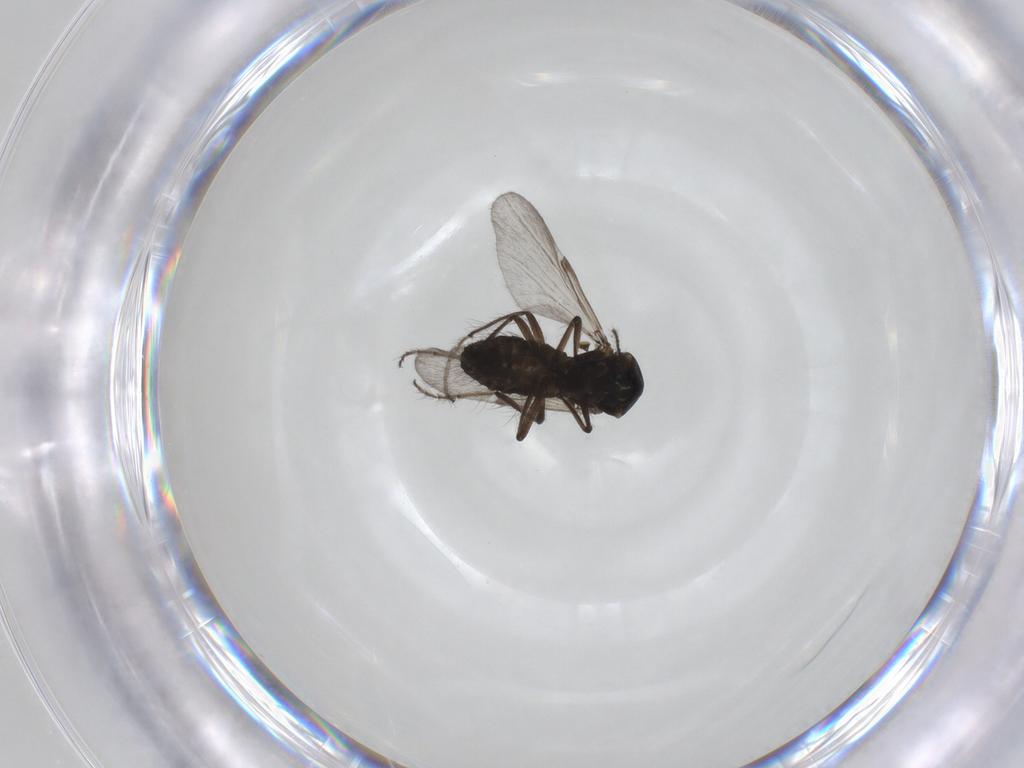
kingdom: Animalia
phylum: Arthropoda
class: Insecta
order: Diptera
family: Ceratopogonidae
